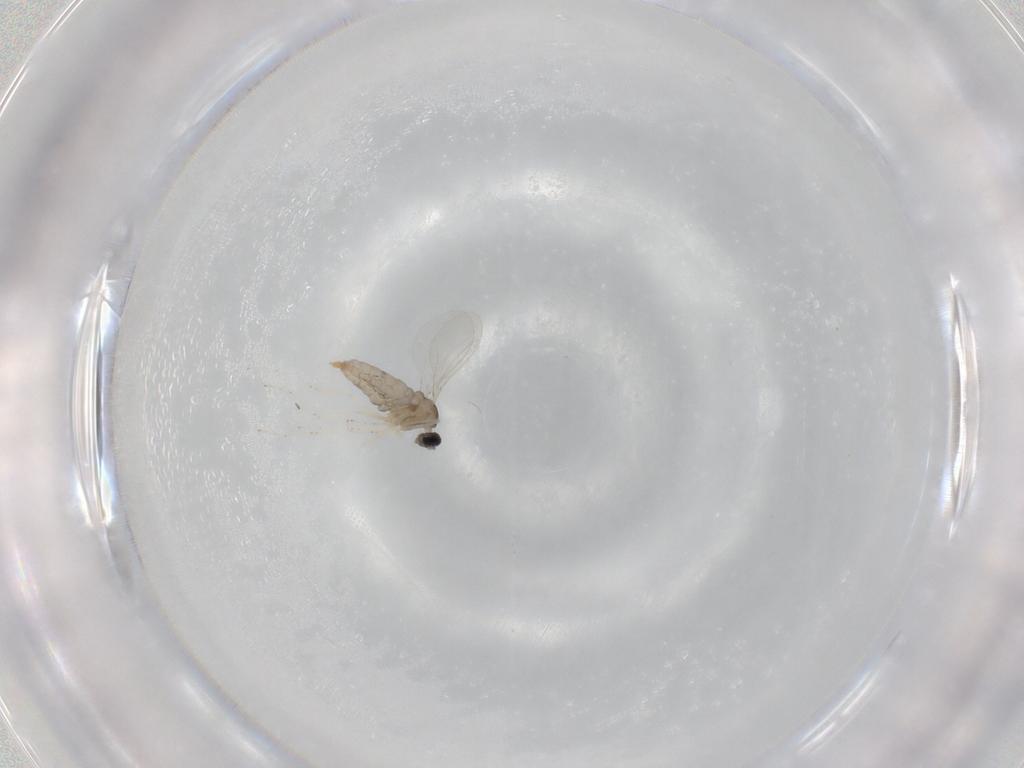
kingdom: Animalia
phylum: Arthropoda
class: Insecta
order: Diptera
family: Cecidomyiidae
